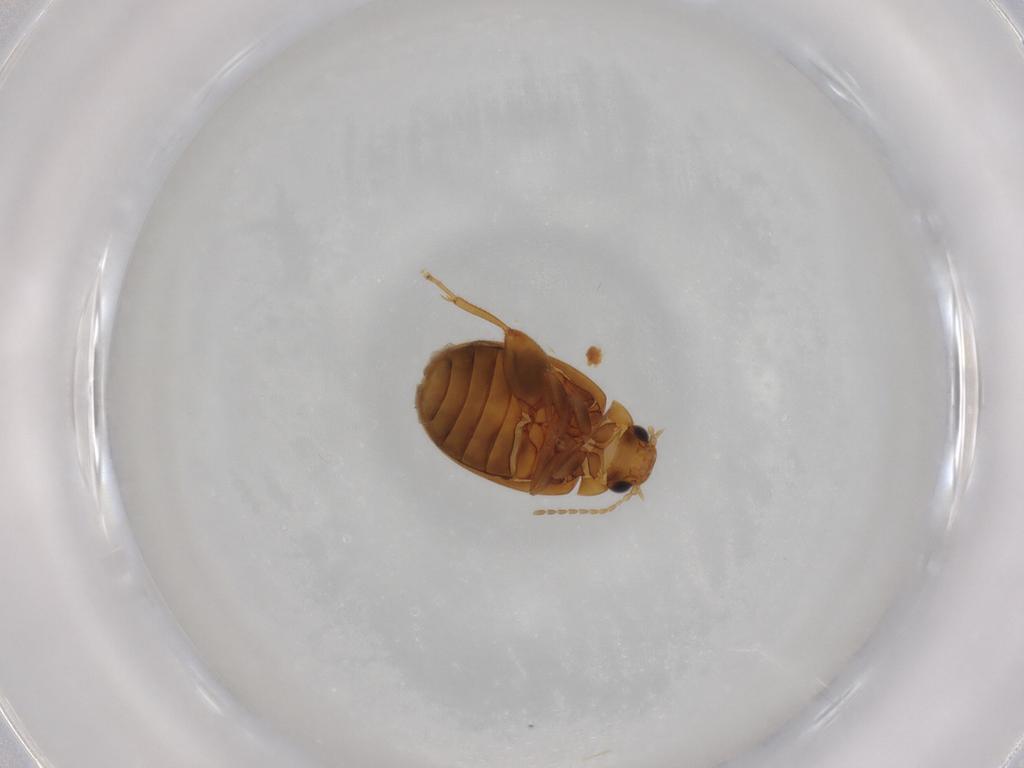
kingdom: Animalia
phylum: Arthropoda
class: Insecta
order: Coleoptera
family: Scirtidae
